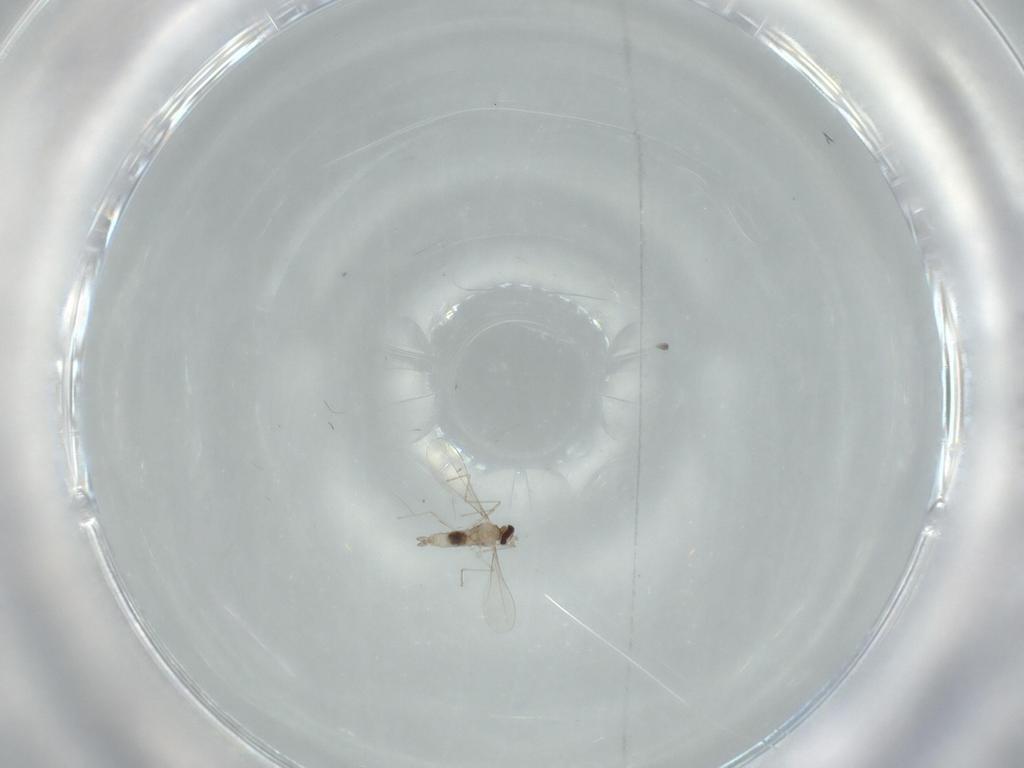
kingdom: Animalia
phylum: Arthropoda
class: Insecta
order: Diptera
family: Cecidomyiidae
